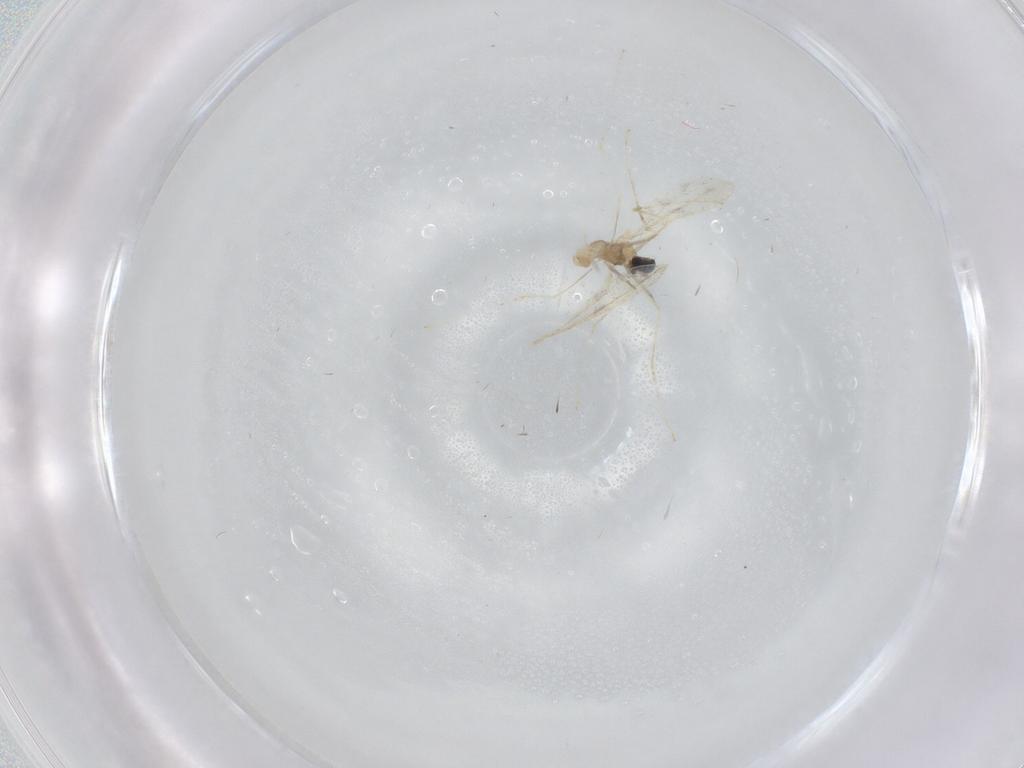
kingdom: Animalia
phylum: Arthropoda
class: Insecta
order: Diptera
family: Cecidomyiidae
